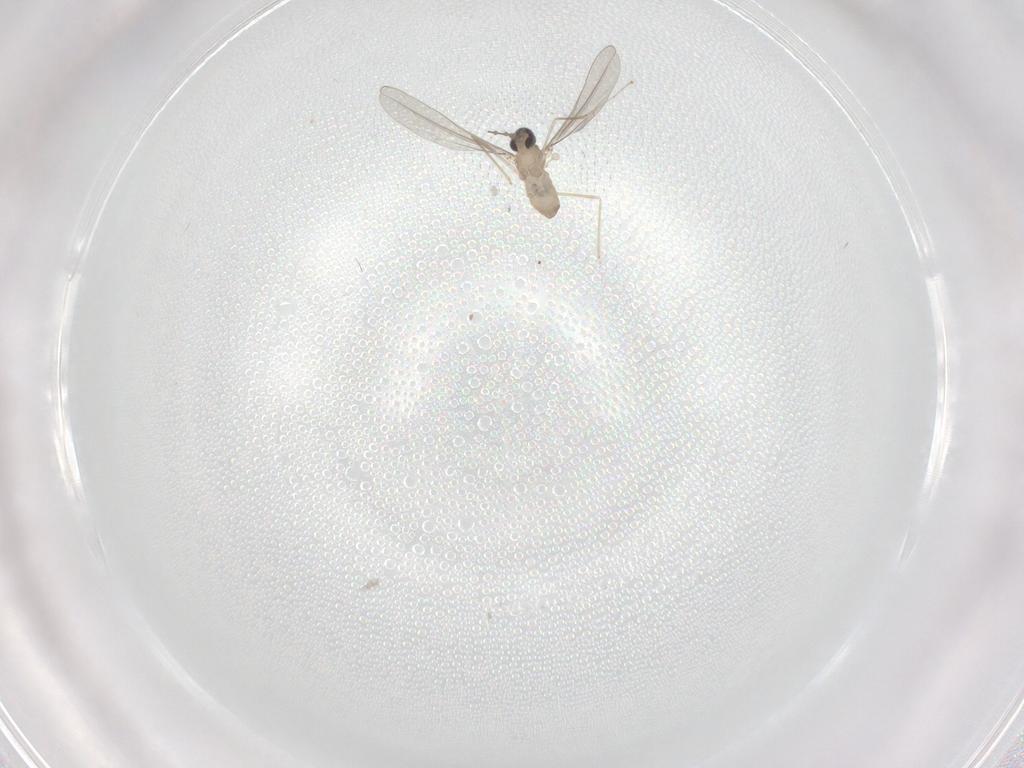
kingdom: Animalia
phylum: Arthropoda
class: Insecta
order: Diptera
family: Cecidomyiidae
